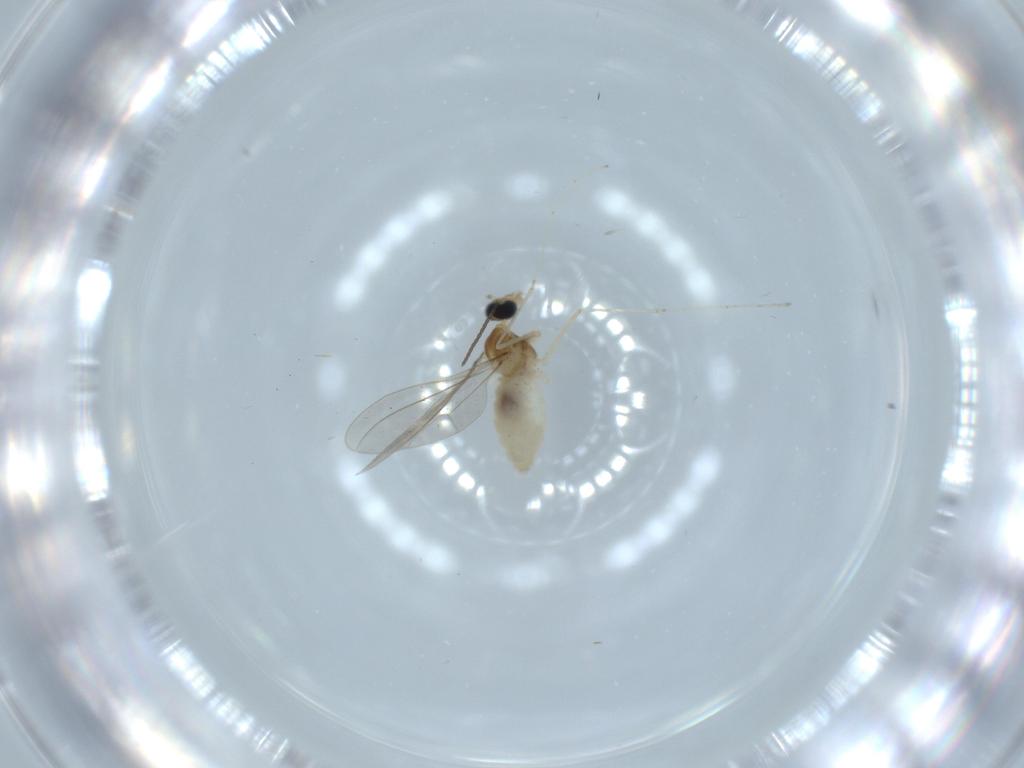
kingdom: Animalia
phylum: Arthropoda
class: Insecta
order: Diptera
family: Cecidomyiidae
